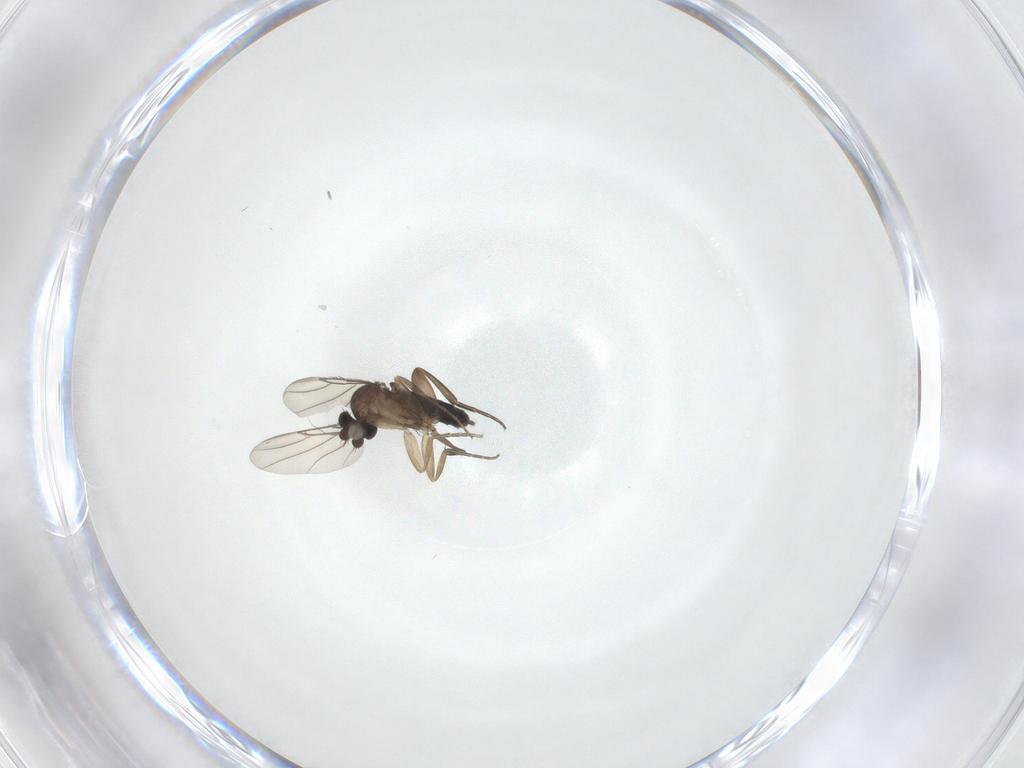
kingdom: Animalia
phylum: Arthropoda
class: Insecta
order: Diptera
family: Phoridae
